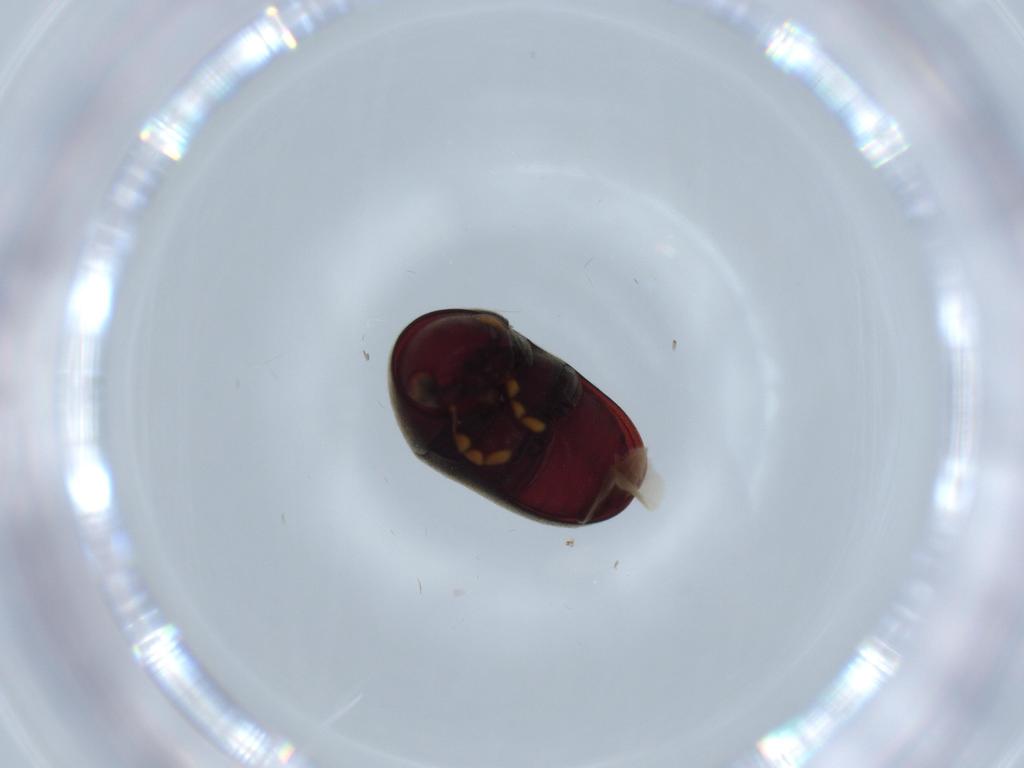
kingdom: Animalia
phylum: Arthropoda
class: Insecta
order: Coleoptera
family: Ptinidae
